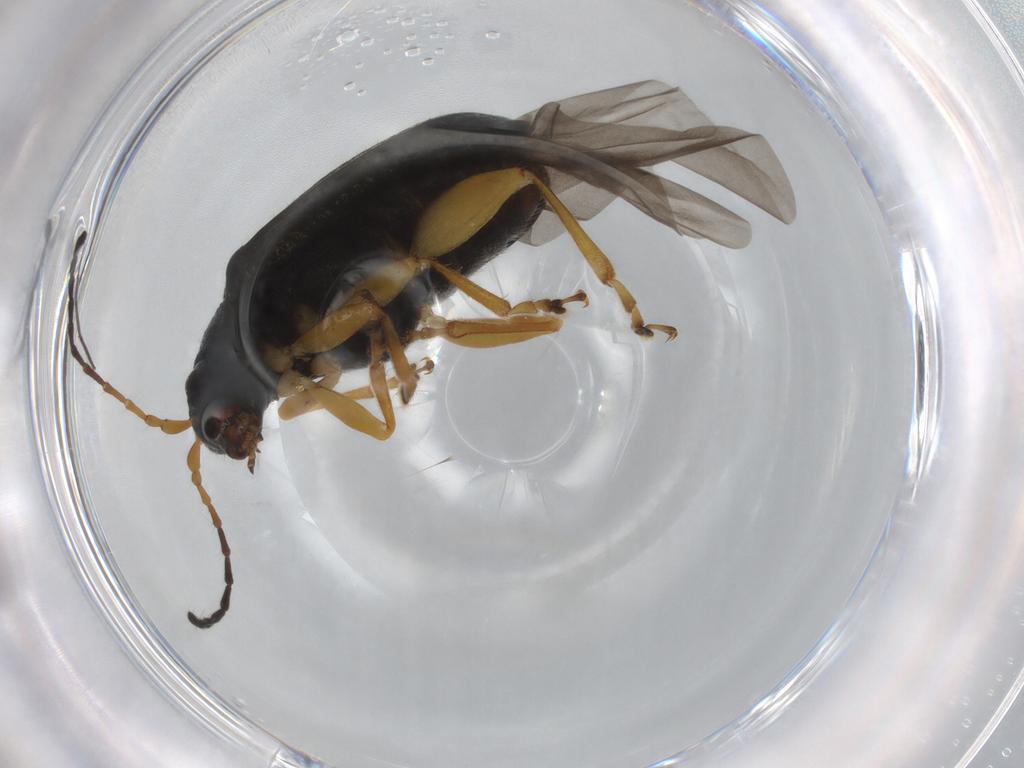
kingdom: Animalia
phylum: Arthropoda
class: Insecta
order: Coleoptera
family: Chrysomelidae
